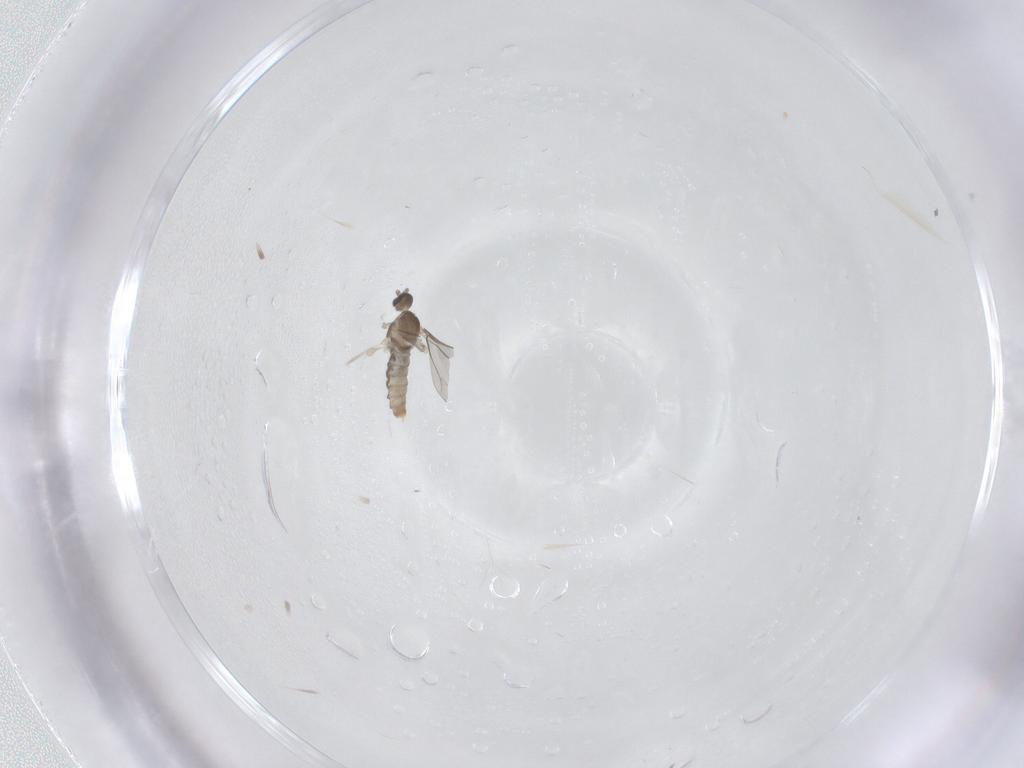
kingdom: Animalia
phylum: Arthropoda
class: Insecta
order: Diptera
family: Cecidomyiidae
